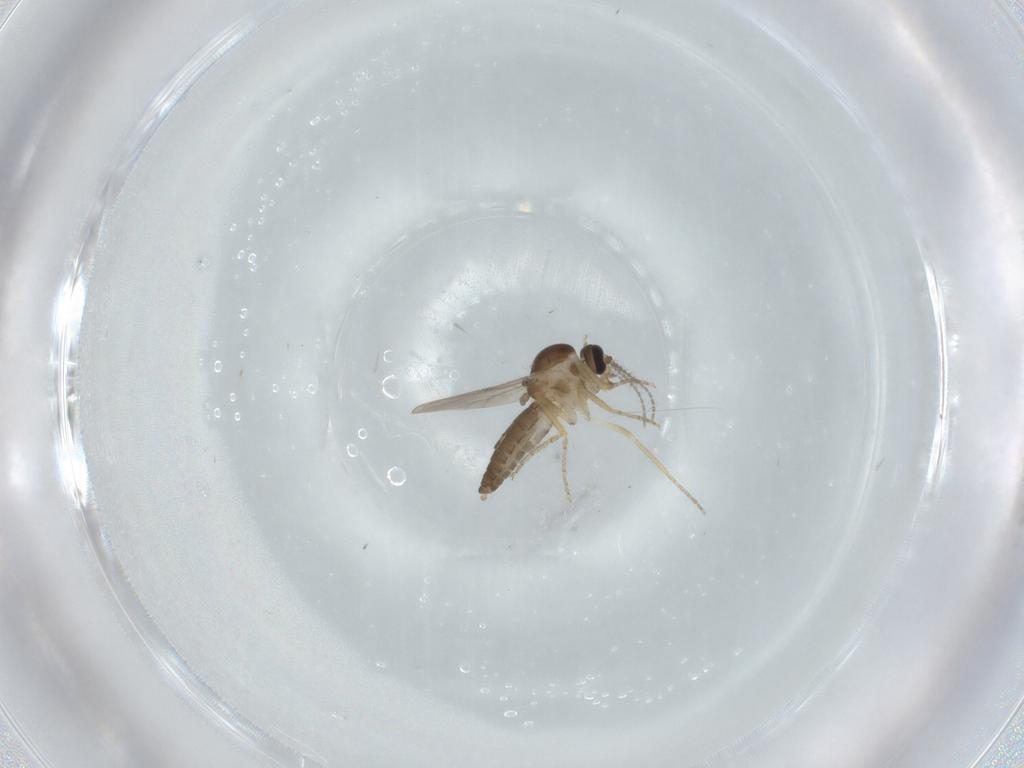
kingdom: Animalia
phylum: Arthropoda
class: Insecta
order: Diptera
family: Ceratopogonidae
